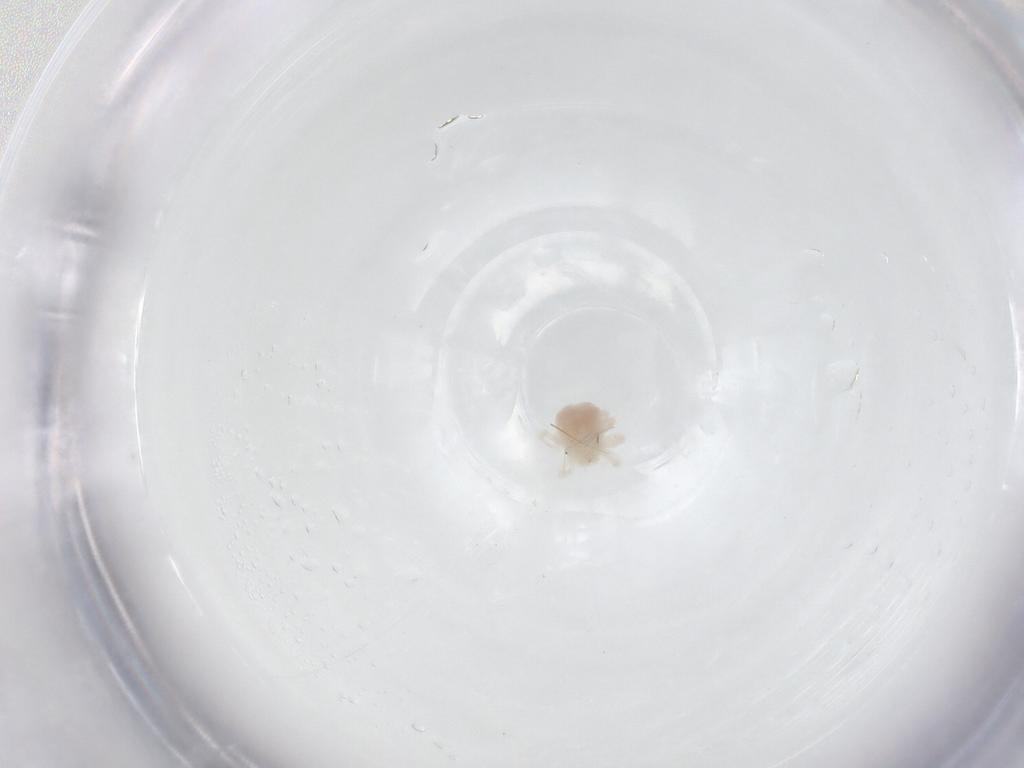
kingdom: Animalia
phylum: Arthropoda
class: Arachnida
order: Trombidiformes
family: Anystidae
